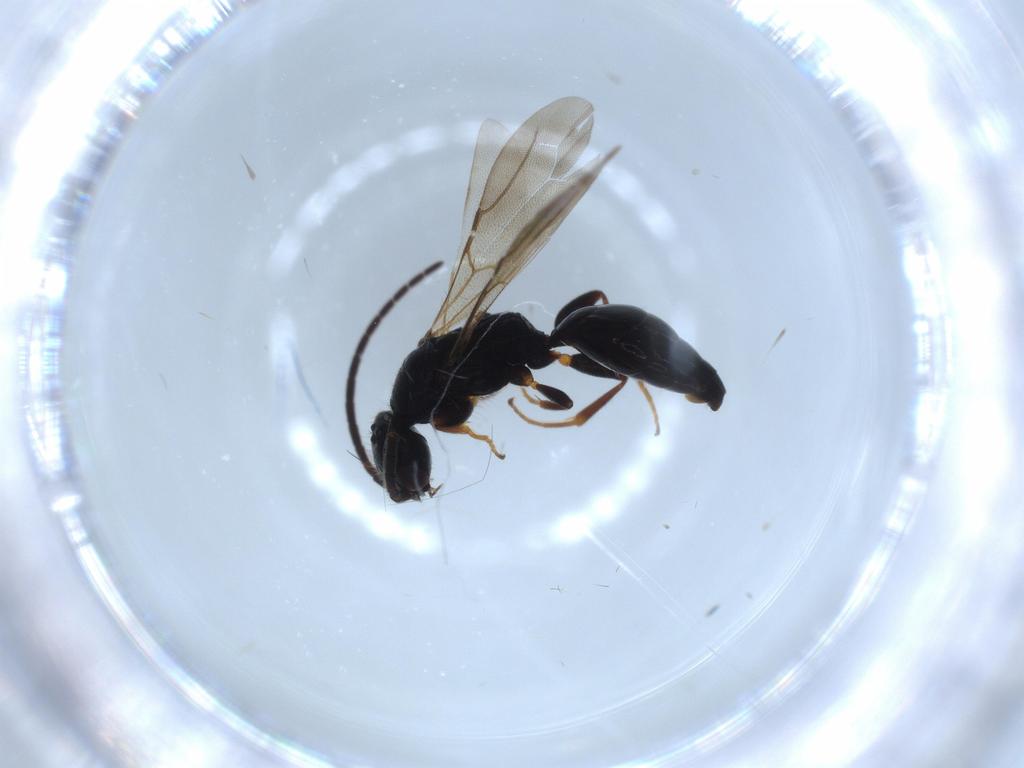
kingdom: Animalia
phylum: Arthropoda
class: Insecta
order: Hymenoptera
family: Bethylidae
